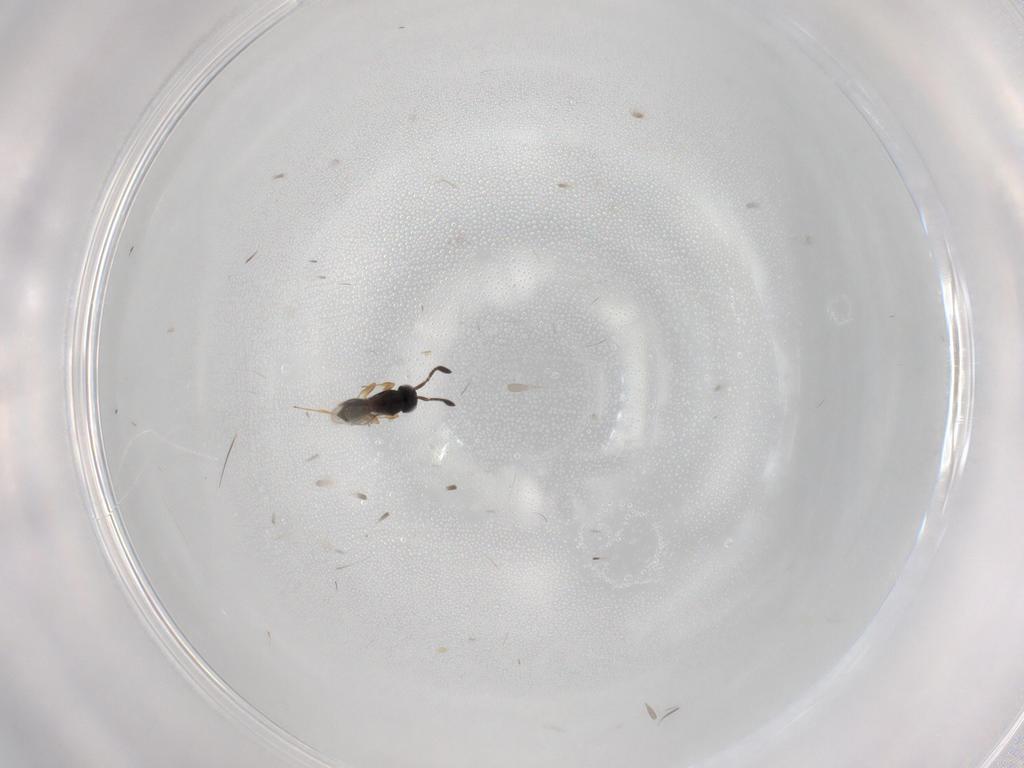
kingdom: Animalia
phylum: Arthropoda
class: Insecta
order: Hymenoptera
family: Scelionidae
